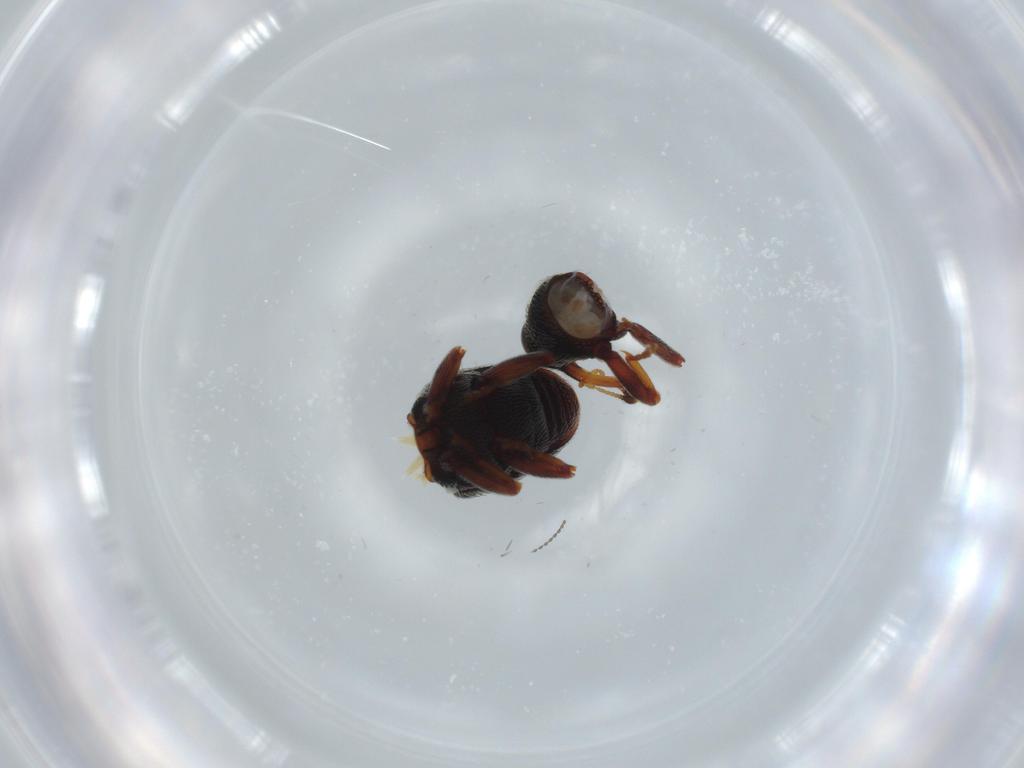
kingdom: Animalia
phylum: Arthropoda
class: Insecta
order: Coleoptera
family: Curculionidae
